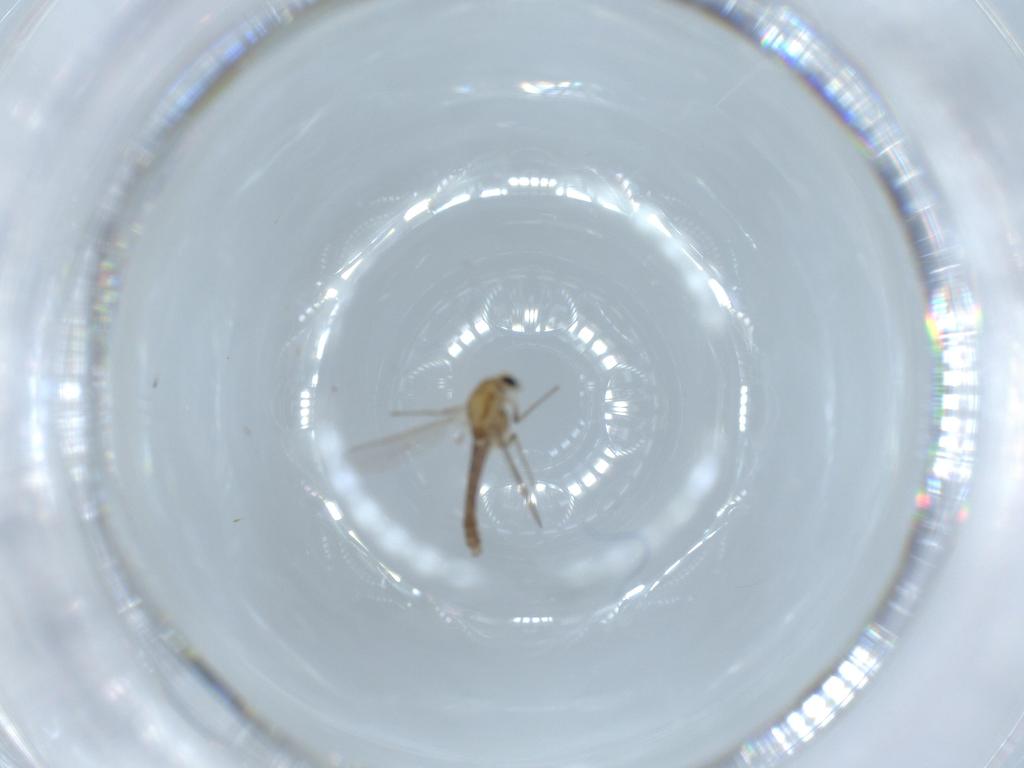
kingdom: Animalia
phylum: Arthropoda
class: Insecta
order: Diptera
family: Chironomidae
